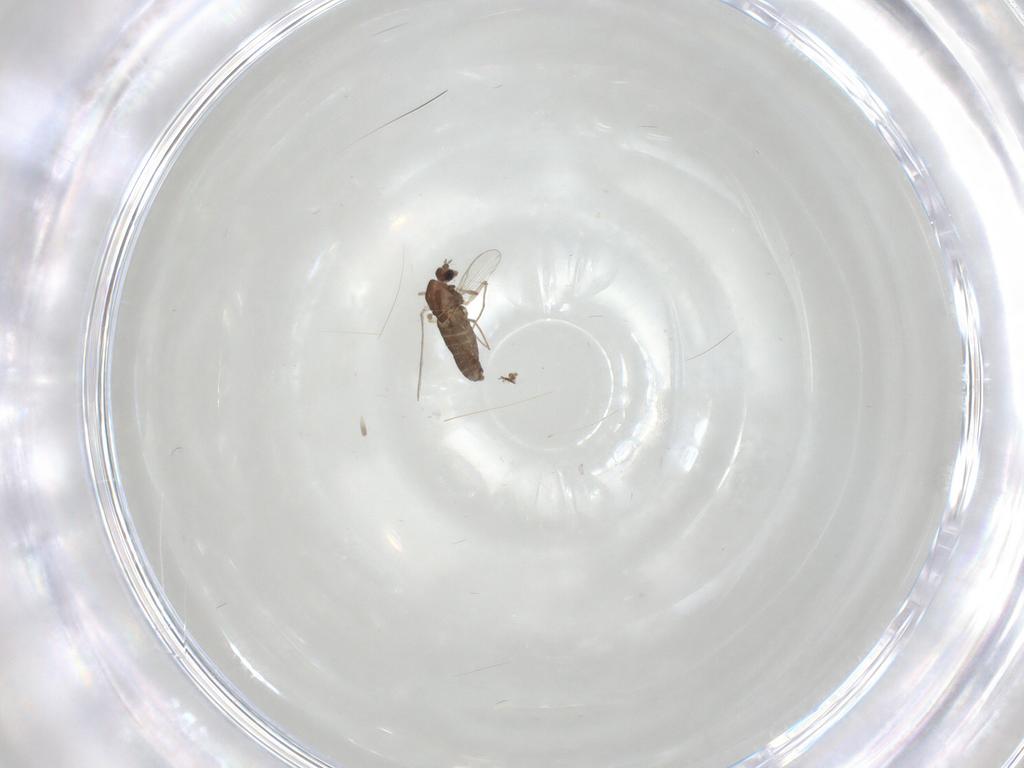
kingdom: Animalia
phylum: Arthropoda
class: Insecta
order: Diptera
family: Chironomidae
